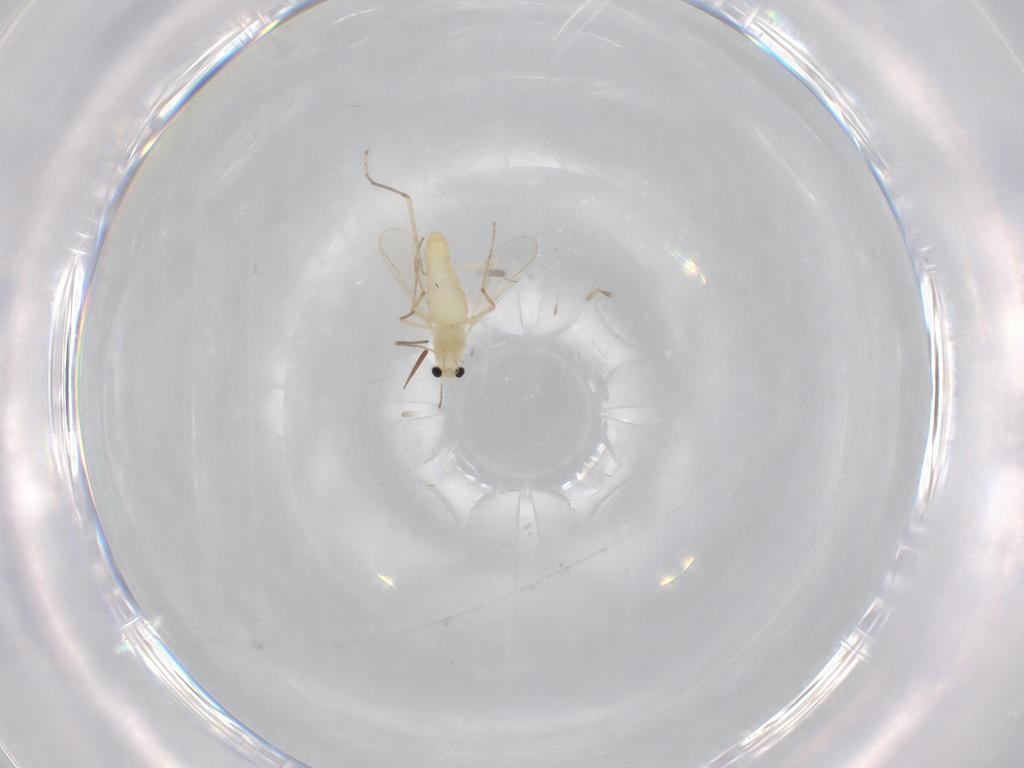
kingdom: Animalia
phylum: Arthropoda
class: Insecta
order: Diptera
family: Chironomidae
